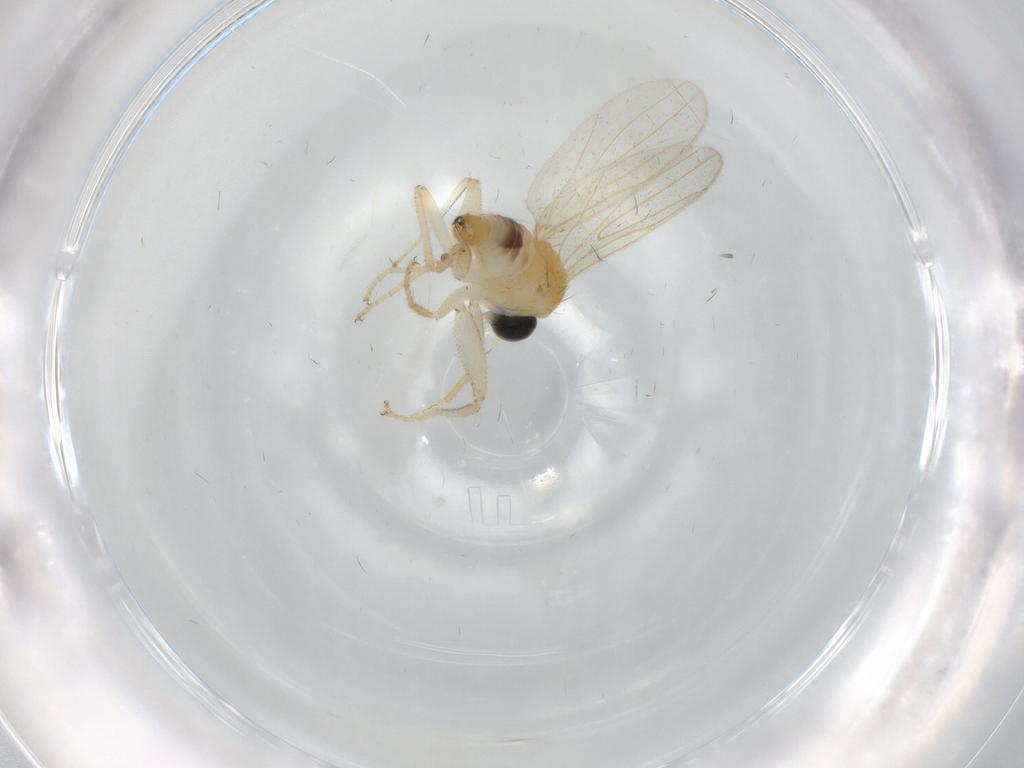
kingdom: Animalia
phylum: Arthropoda
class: Insecta
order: Diptera
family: Hybotidae
